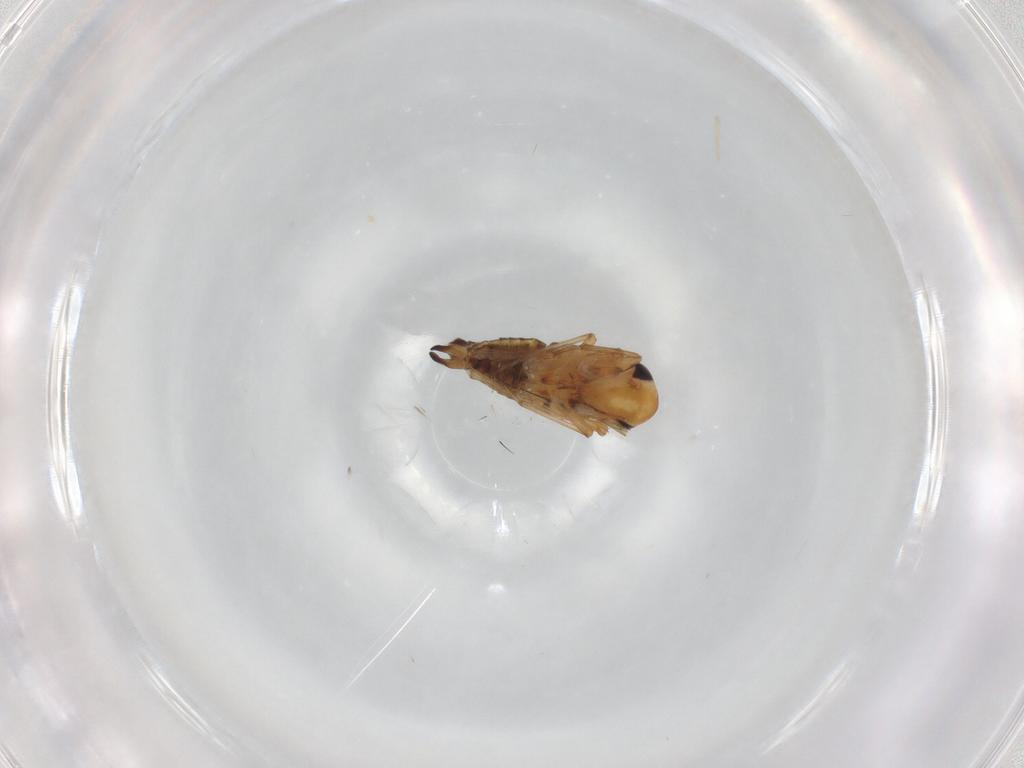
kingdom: Animalia
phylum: Arthropoda
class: Insecta
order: Hemiptera
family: Cicadellidae
